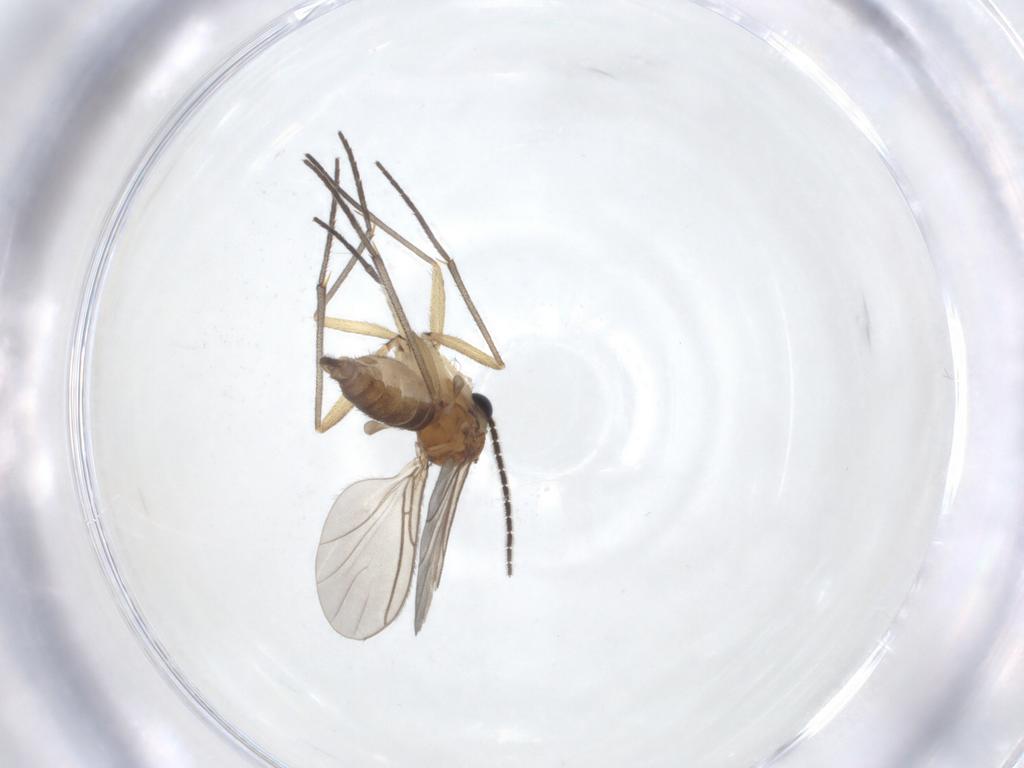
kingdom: Animalia
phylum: Arthropoda
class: Insecta
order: Diptera
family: Sciaridae
